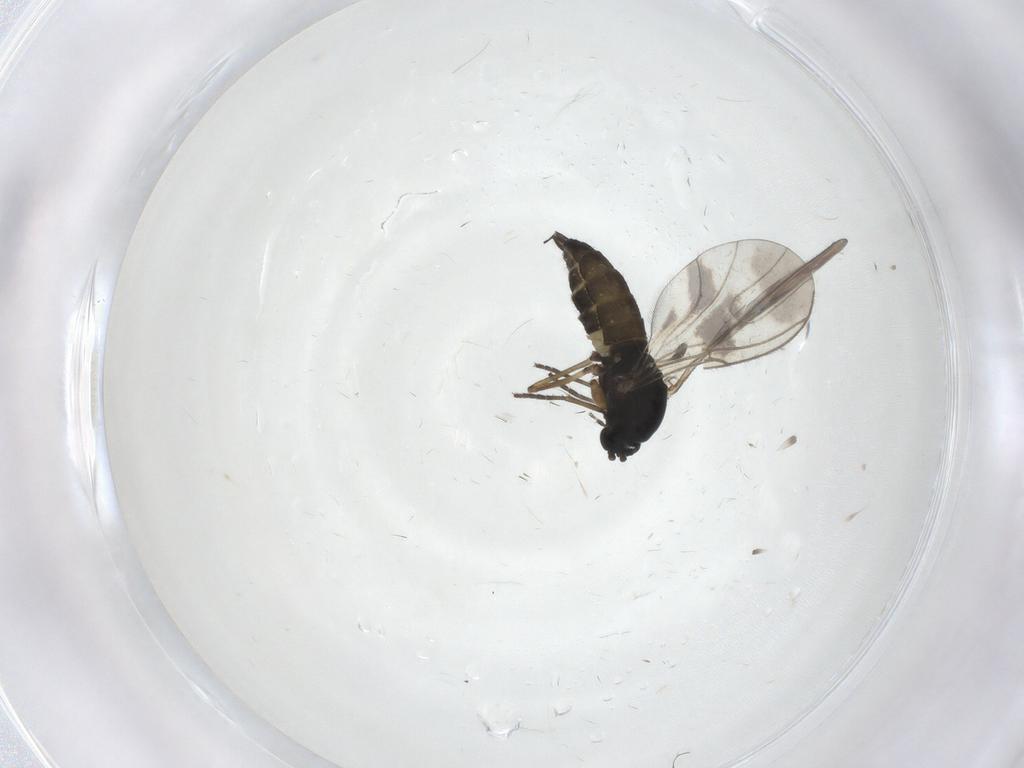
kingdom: Animalia
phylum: Arthropoda
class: Insecta
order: Diptera
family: Sciaridae
